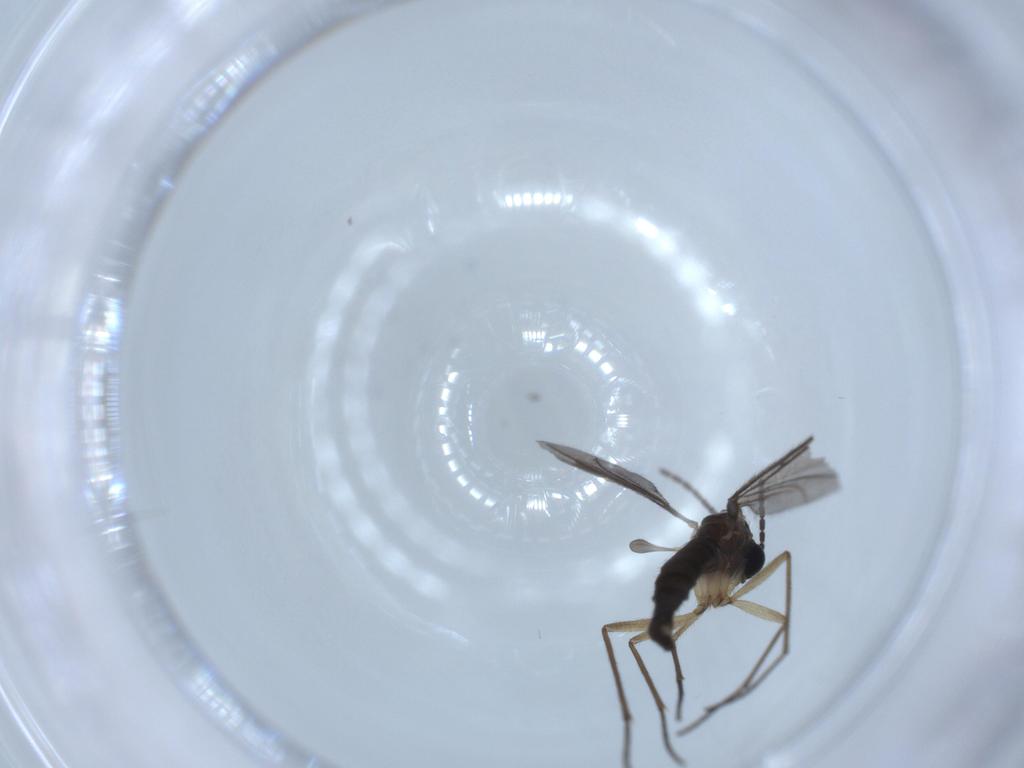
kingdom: Animalia
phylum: Arthropoda
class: Insecta
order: Diptera
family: Sciaridae
